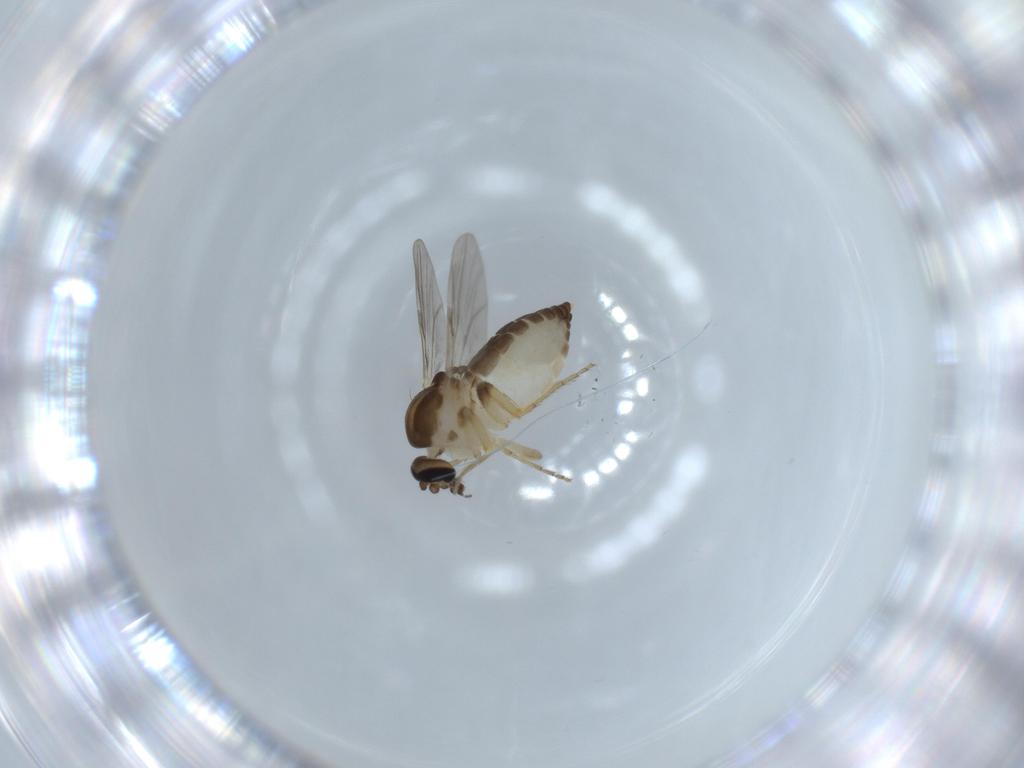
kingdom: Animalia
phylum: Arthropoda
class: Insecta
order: Diptera
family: Ceratopogonidae
